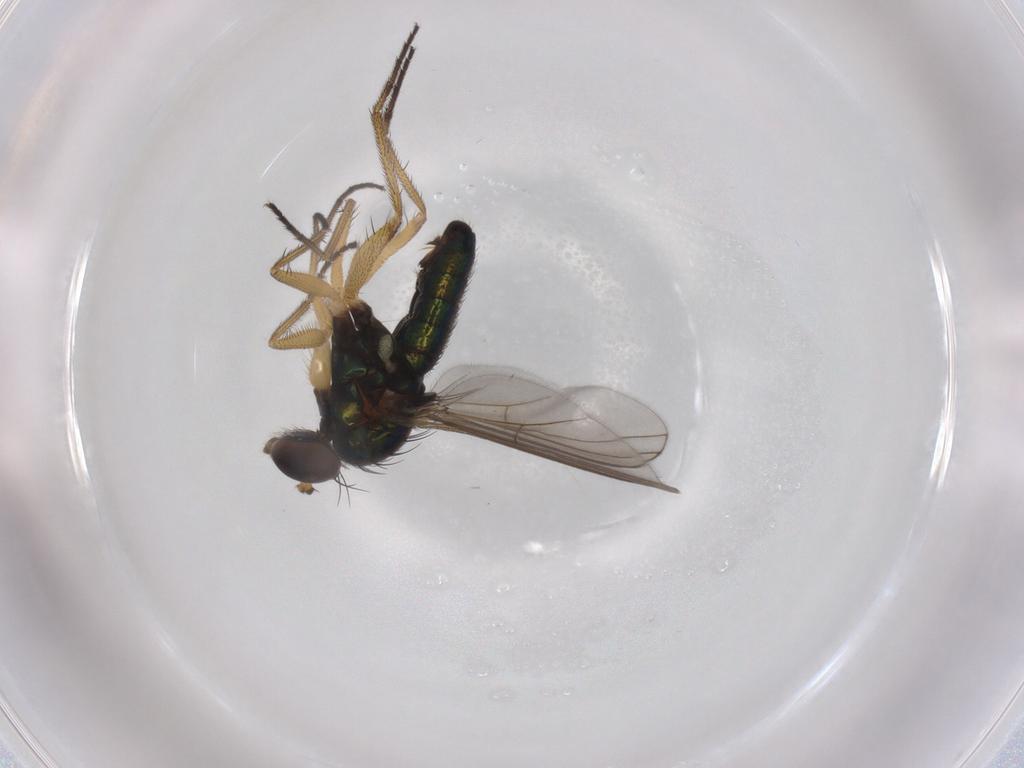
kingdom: Animalia
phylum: Arthropoda
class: Insecta
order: Diptera
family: Dolichopodidae
